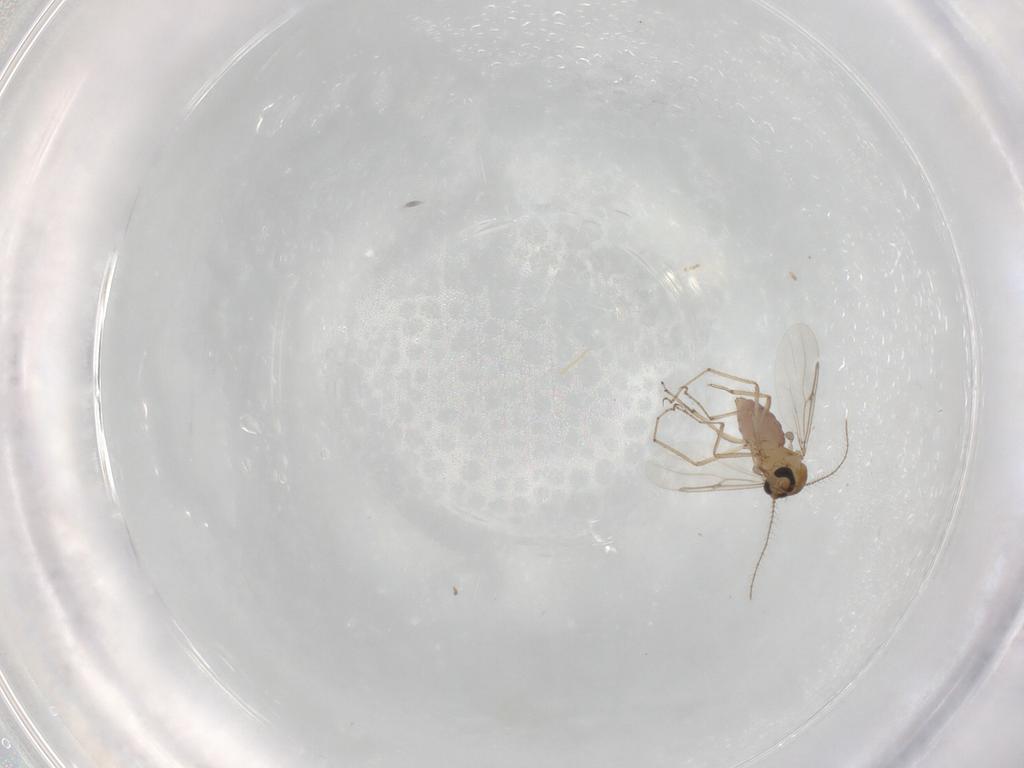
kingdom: Animalia
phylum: Arthropoda
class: Insecta
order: Diptera
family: Ceratopogonidae
